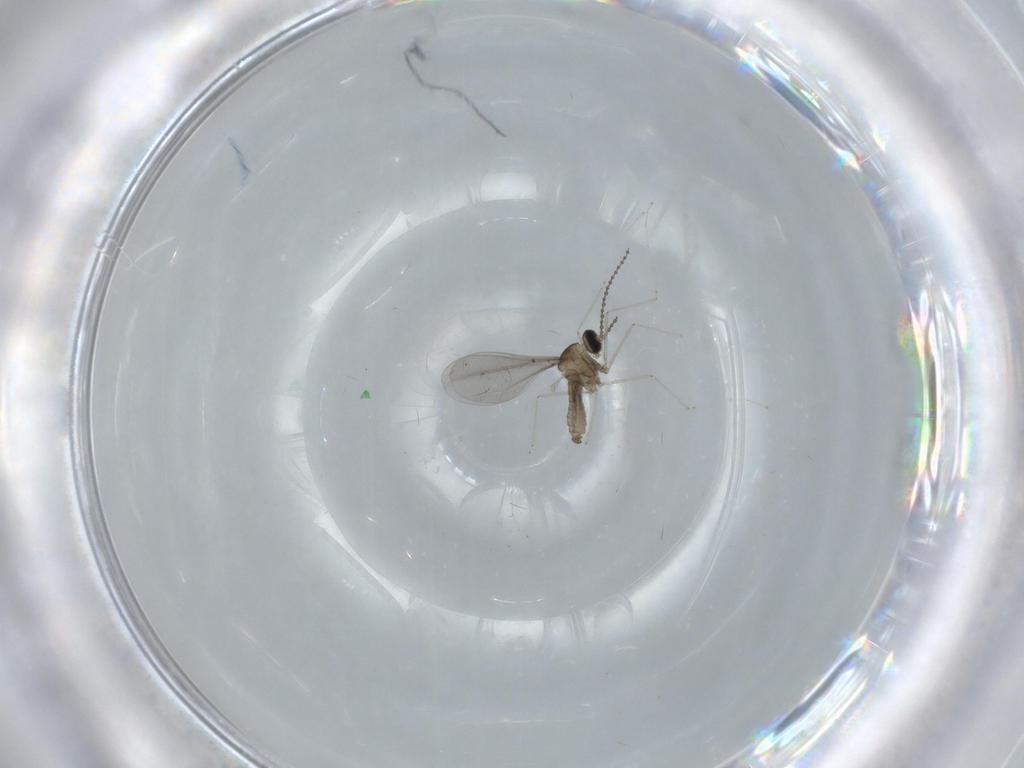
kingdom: Animalia
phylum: Arthropoda
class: Insecta
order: Diptera
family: Cecidomyiidae
